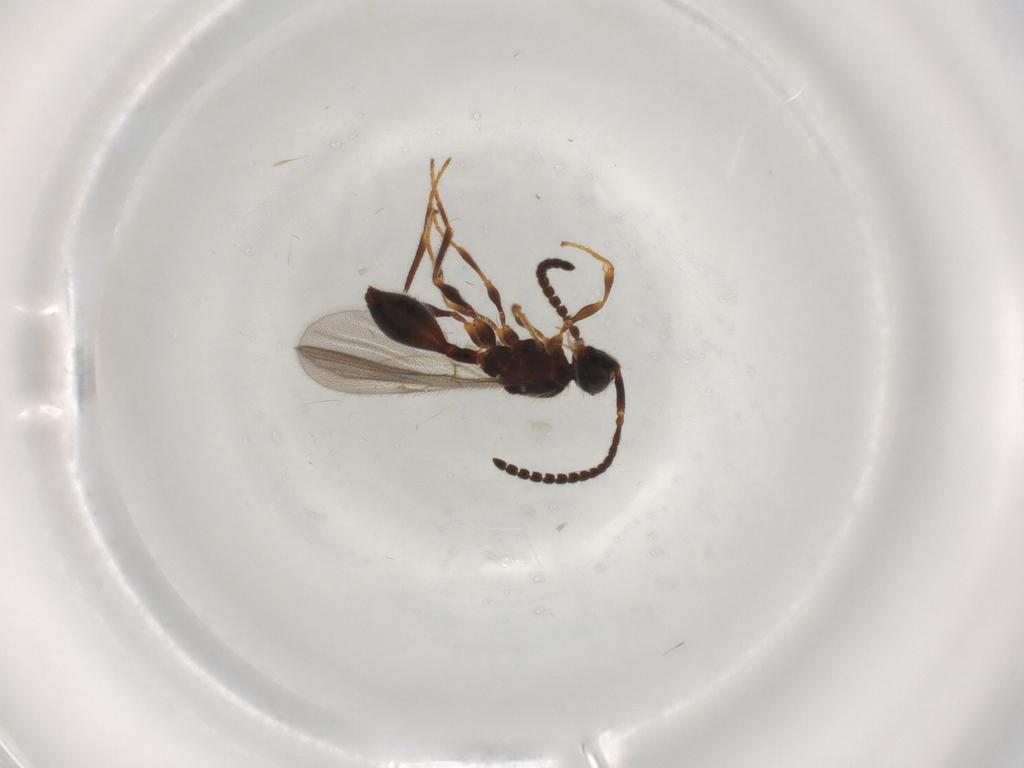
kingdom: Animalia
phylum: Arthropoda
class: Insecta
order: Hymenoptera
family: Diapriidae
